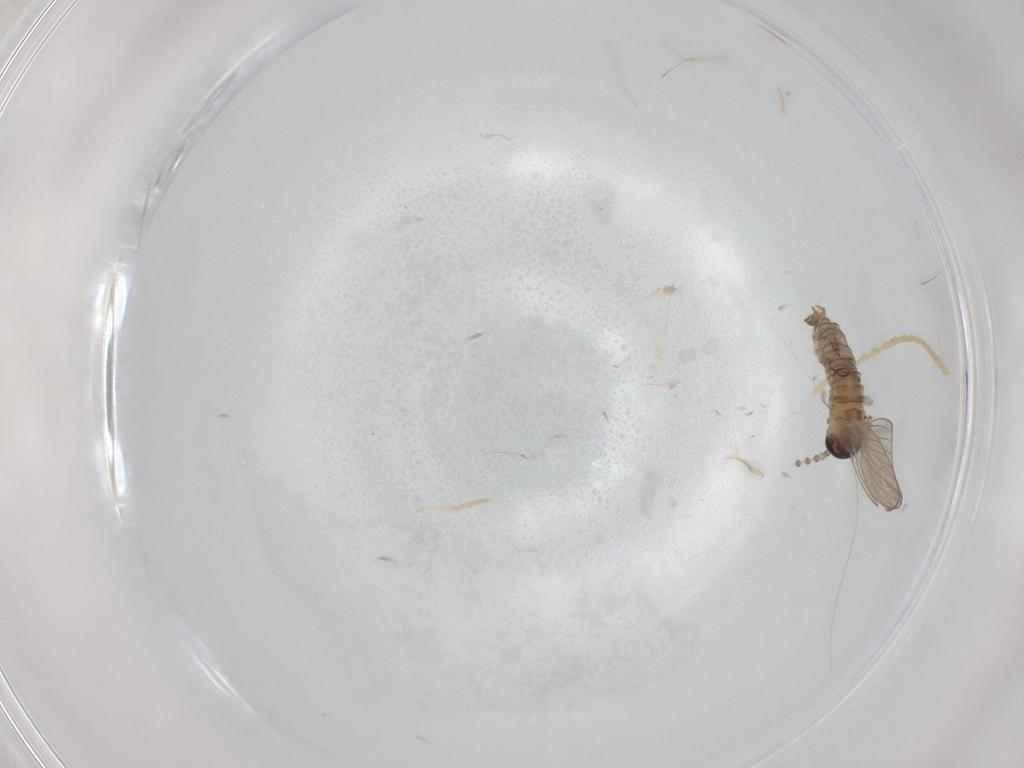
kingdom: Animalia
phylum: Arthropoda
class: Insecta
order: Diptera
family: Psychodidae
